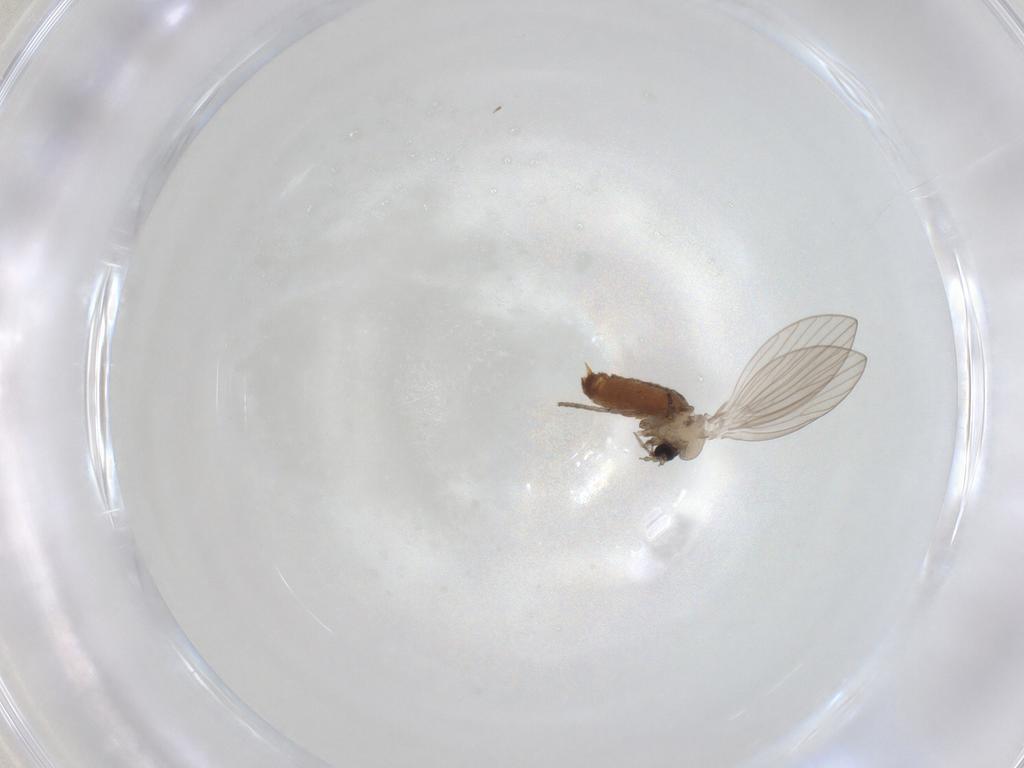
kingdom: Animalia
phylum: Arthropoda
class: Insecta
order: Diptera
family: Psychodidae
